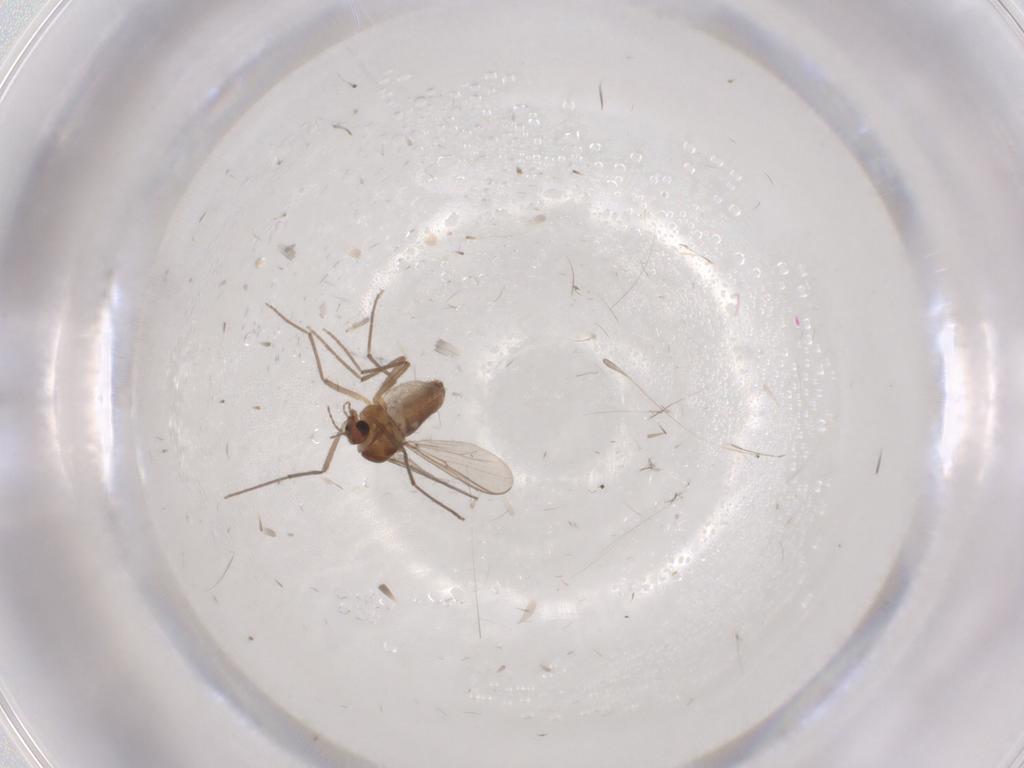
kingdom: Animalia
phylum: Arthropoda
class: Insecta
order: Diptera
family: Chironomidae
